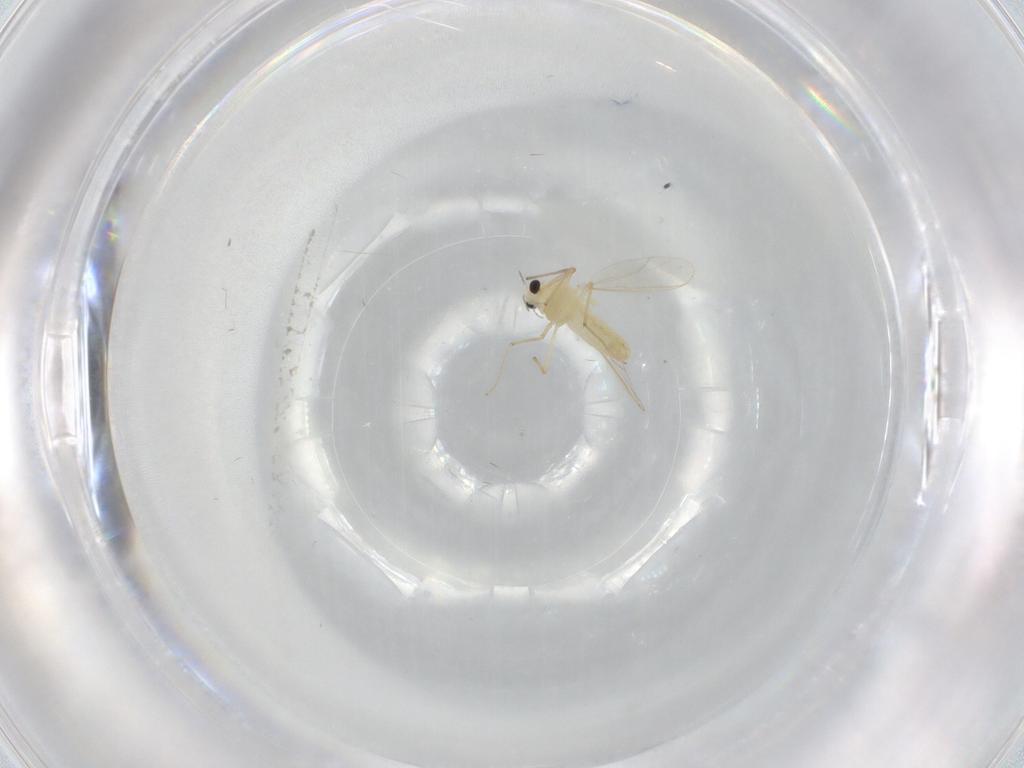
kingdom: Animalia
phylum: Arthropoda
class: Insecta
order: Diptera
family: Chironomidae
